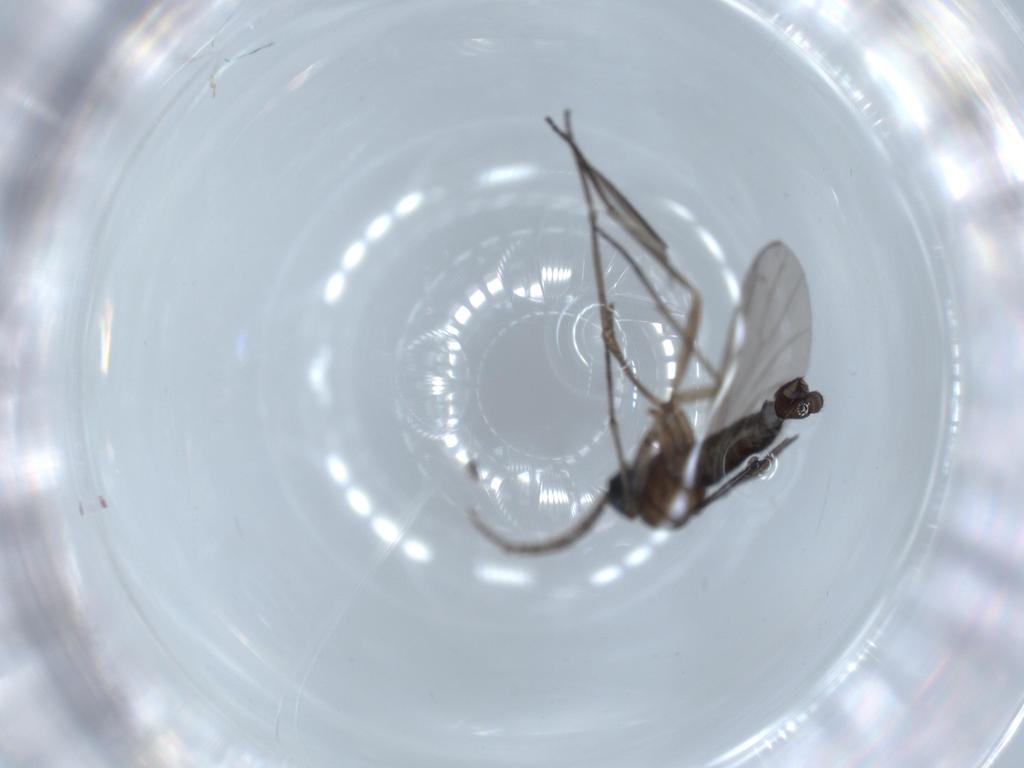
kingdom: Animalia
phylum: Arthropoda
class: Insecta
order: Diptera
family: Sciaridae
